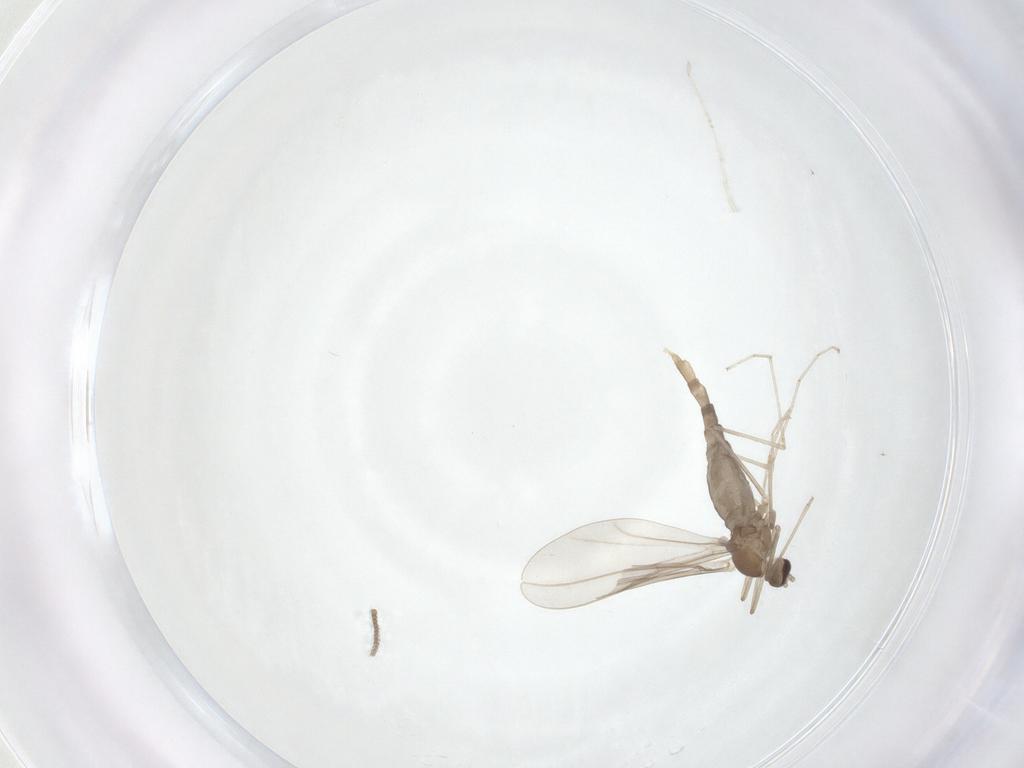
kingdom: Animalia
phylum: Arthropoda
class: Insecta
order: Diptera
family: Cecidomyiidae
